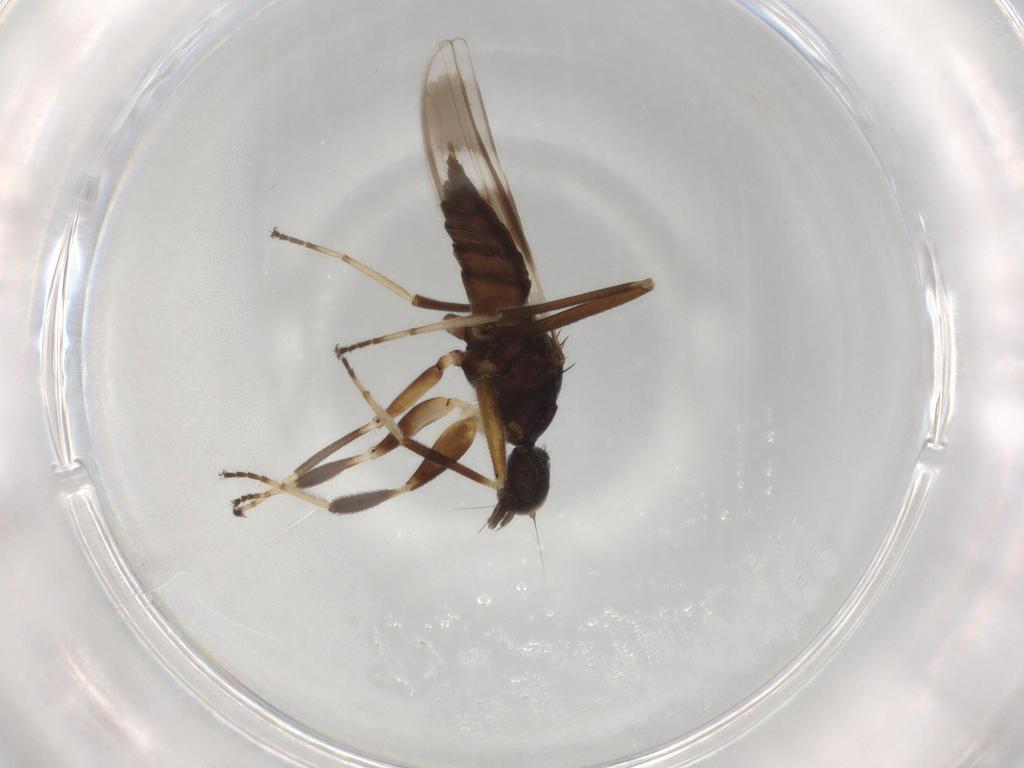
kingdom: Animalia
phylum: Arthropoda
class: Insecta
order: Diptera
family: Hybotidae
